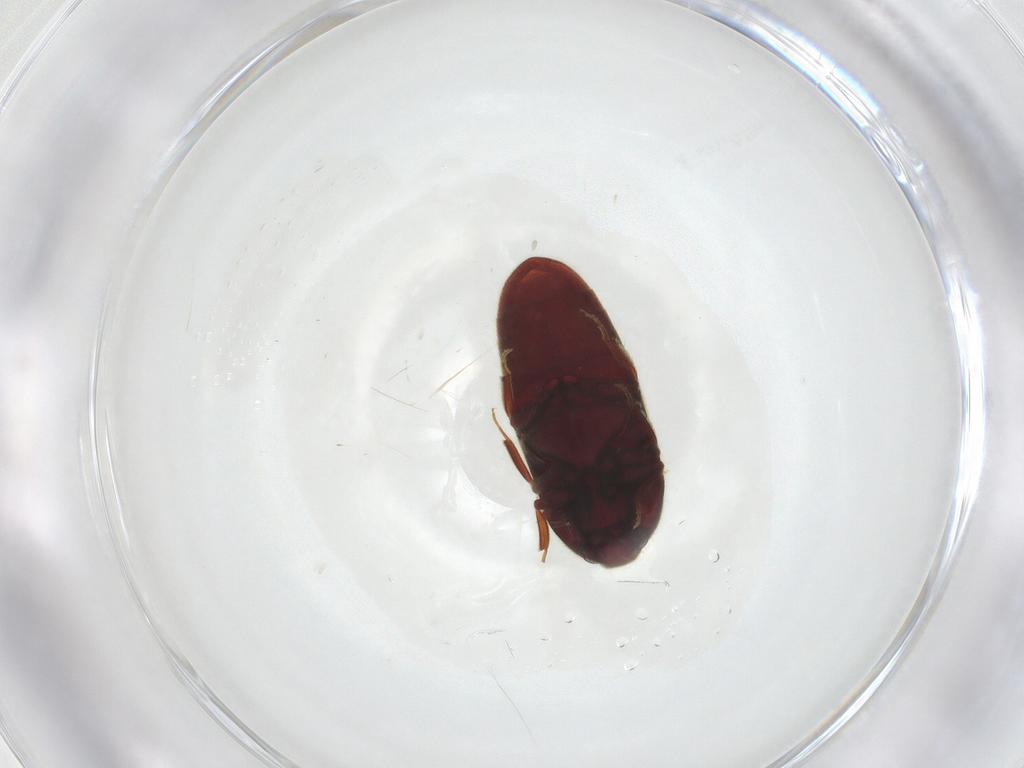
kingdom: Animalia
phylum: Arthropoda
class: Insecta
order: Coleoptera
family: Throscidae
